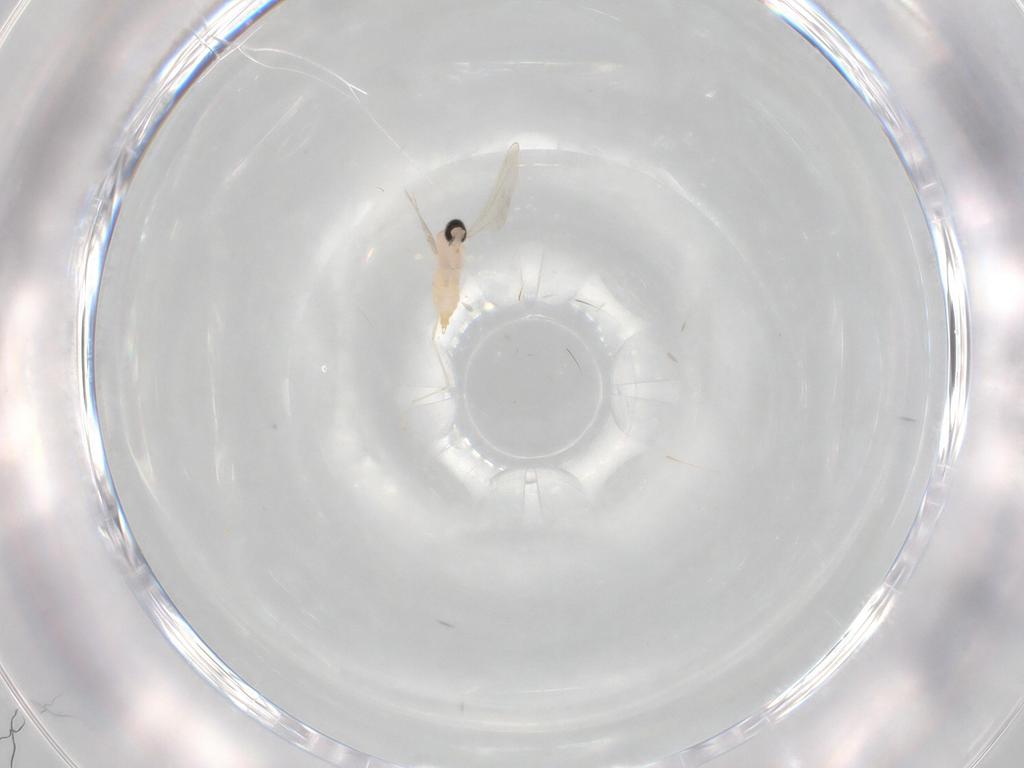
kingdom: Animalia
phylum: Arthropoda
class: Insecta
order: Diptera
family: Cecidomyiidae
